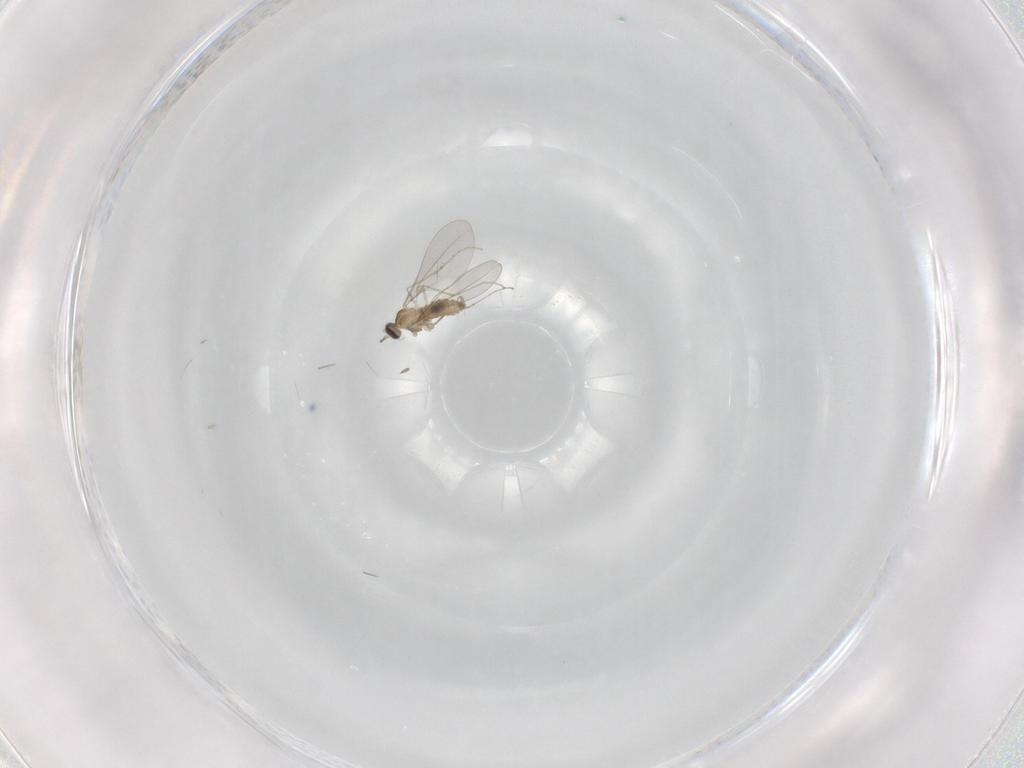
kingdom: Animalia
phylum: Arthropoda
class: Insecta
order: Diptera
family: Cecidomyiidae
